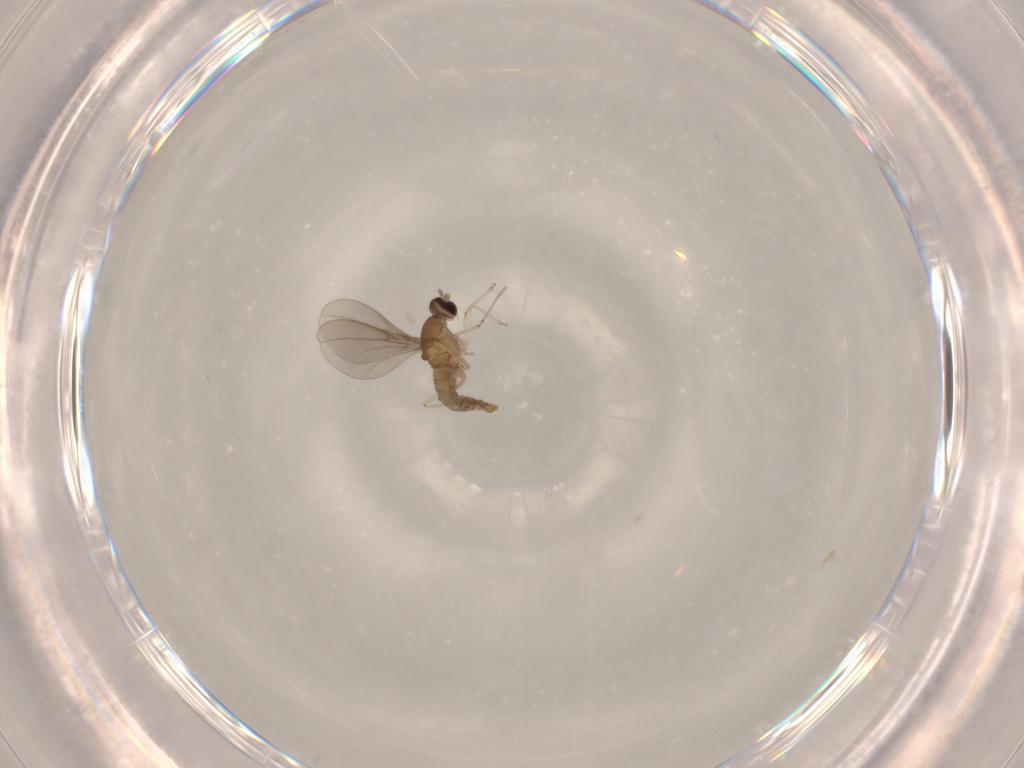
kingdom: Animalia
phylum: Arthropoda
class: Insecta
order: Diptera
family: Cecidomyiidae
